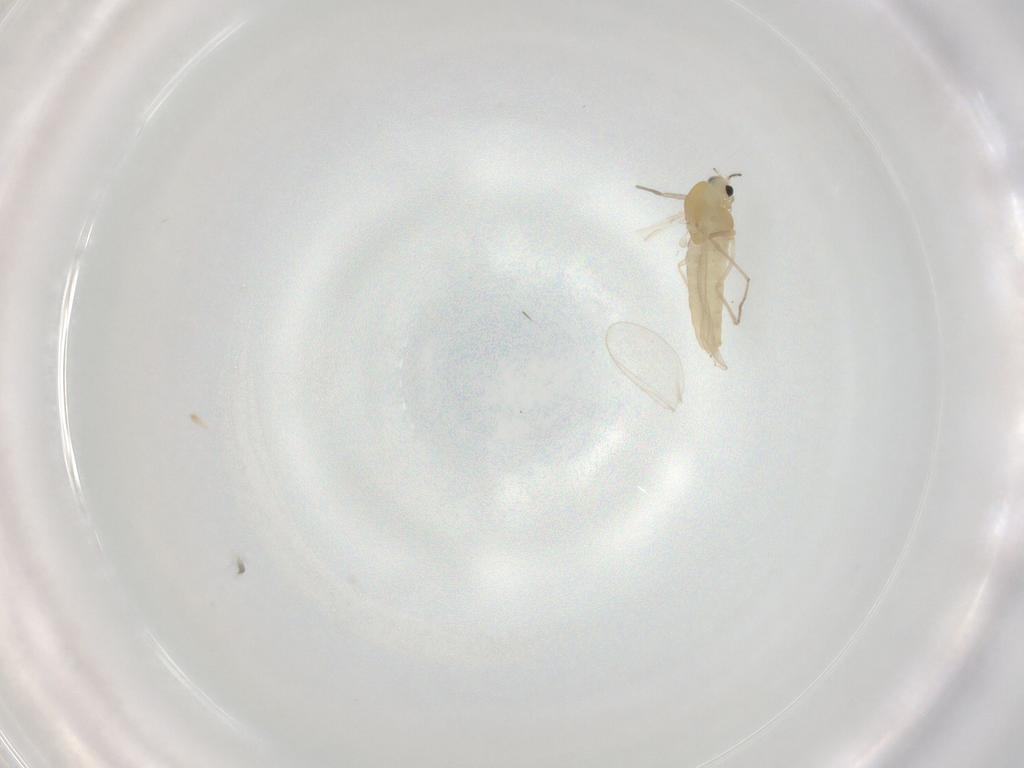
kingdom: Animalia
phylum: Arthropoda
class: Insecta
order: Diptera
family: Chironomidae
